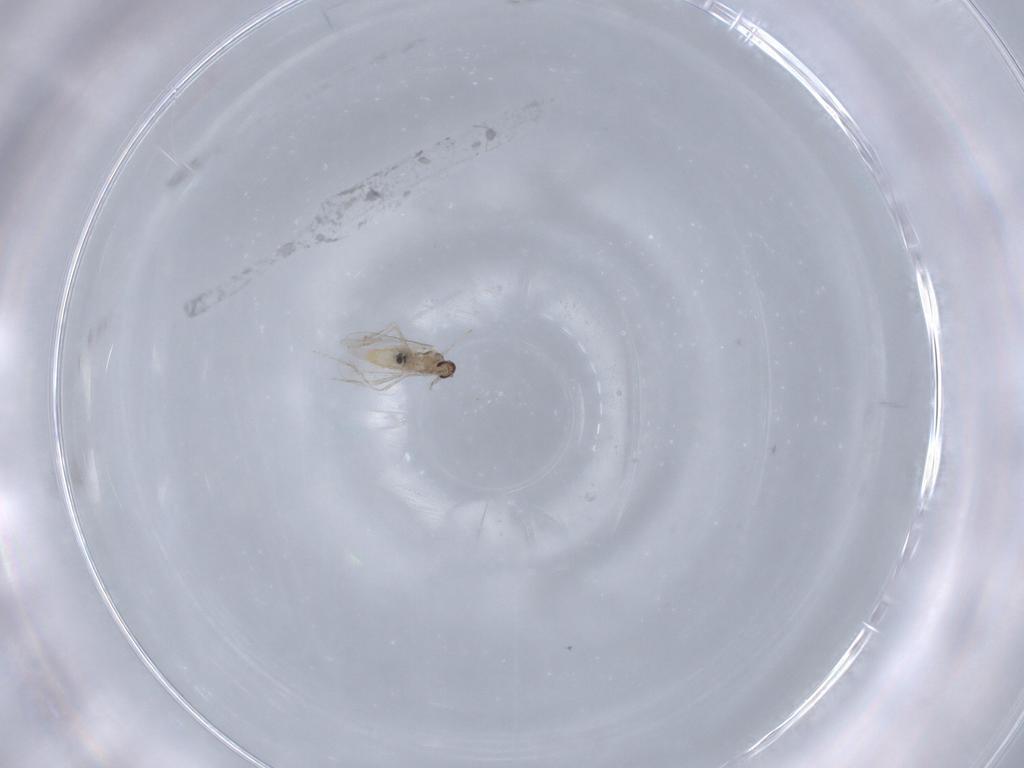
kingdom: Animalia
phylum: Arthropoda
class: Insecta
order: Diptera
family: Cecidomyiidae
